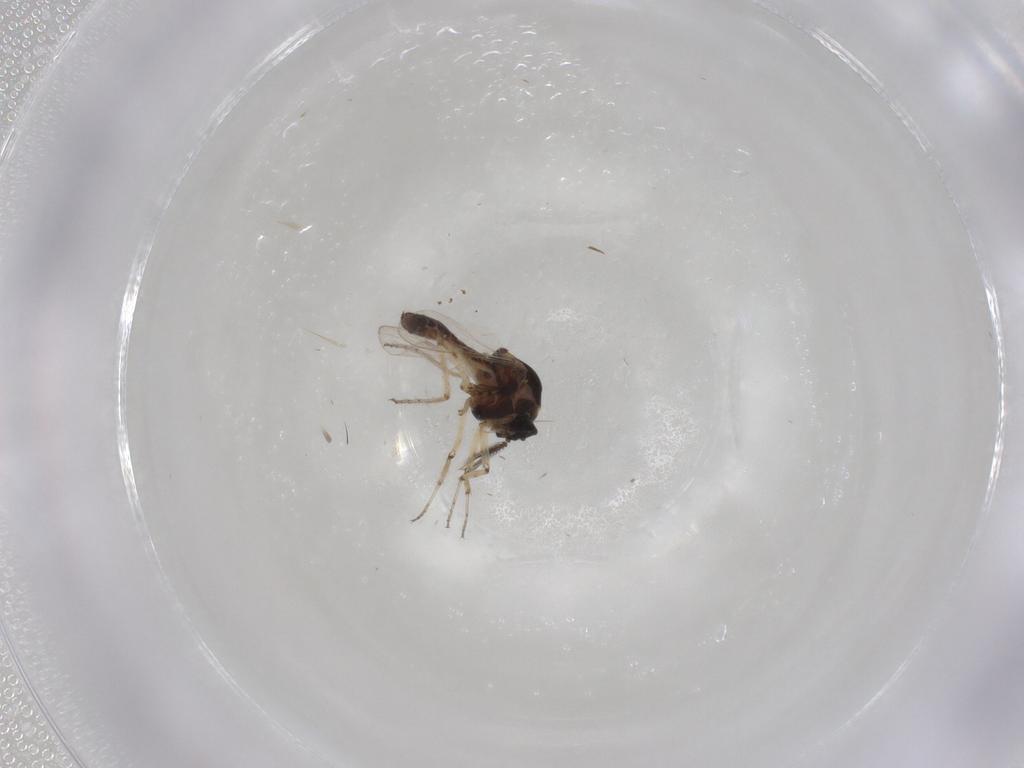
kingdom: Animalia
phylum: Arthropoda
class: Insecta
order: Diptera
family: Ceratopogonidae
